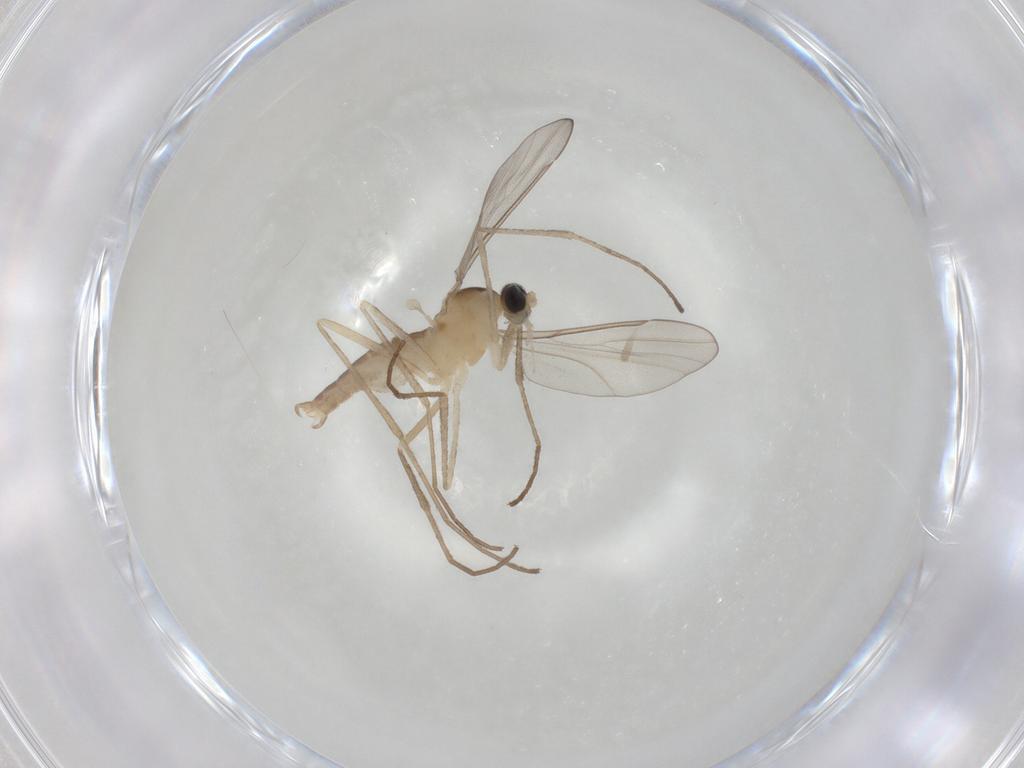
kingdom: Animalia
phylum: Arthropoda
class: Insecta
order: Diptera
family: Cecidomyiidae
